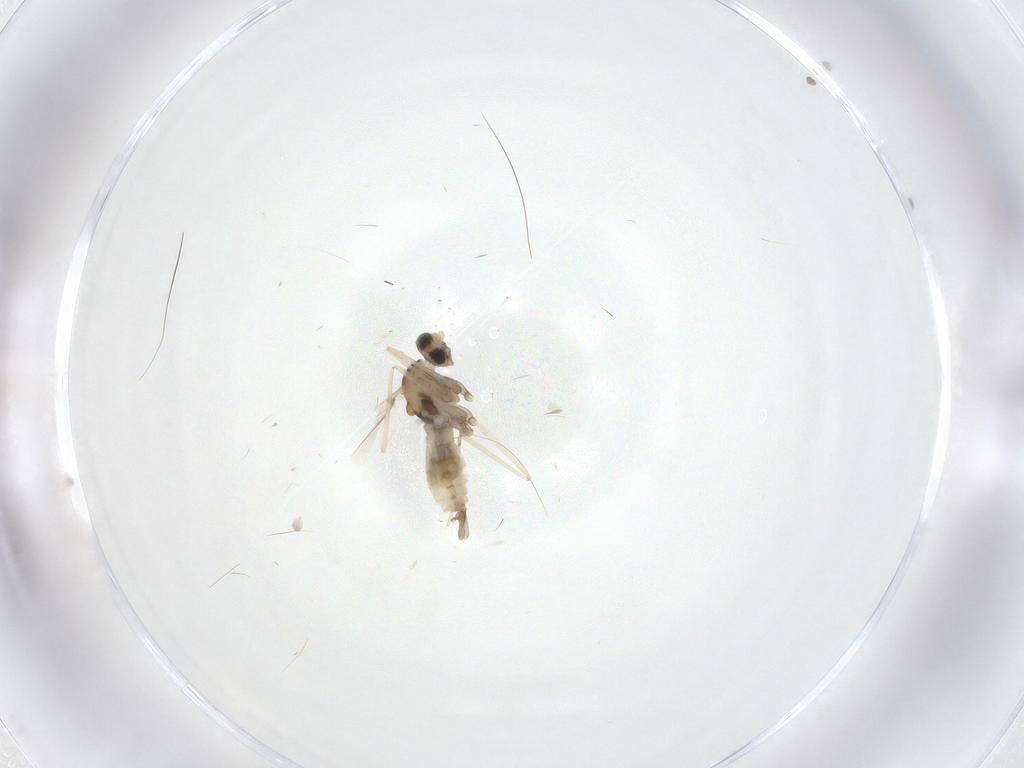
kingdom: Animalia
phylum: Arthropoda
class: Insecta
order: Diptera
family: Cecidomyiidae
